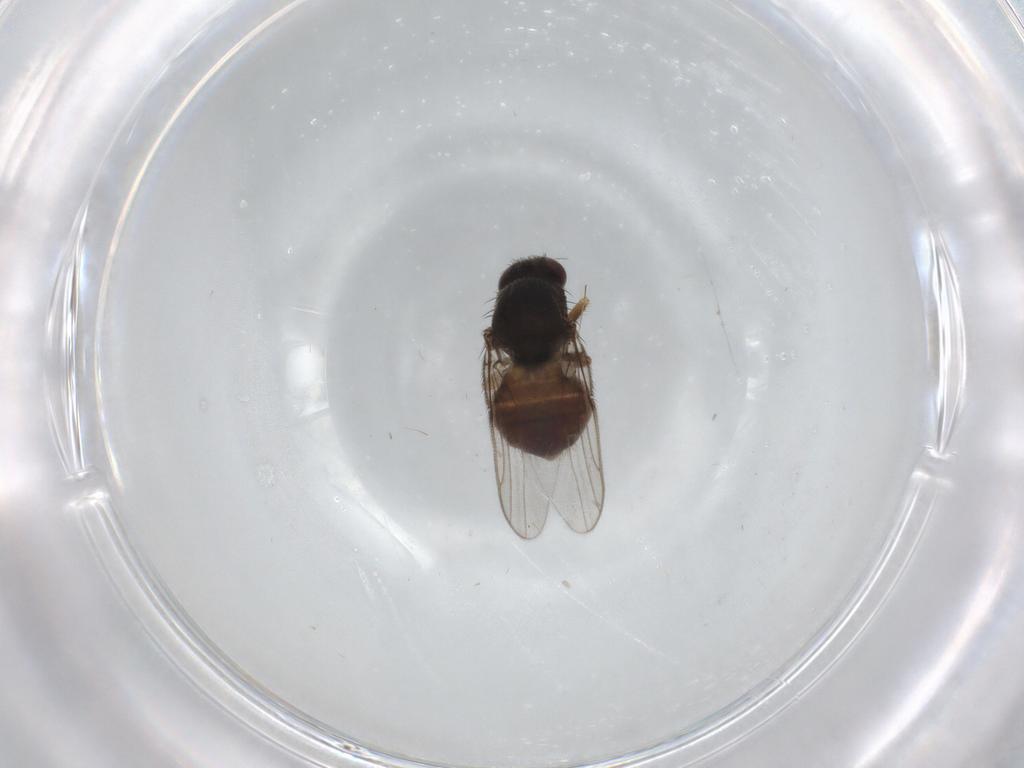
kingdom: Animalia
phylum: Arthropoda
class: Insecta
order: Diptera
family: Chloropidae
